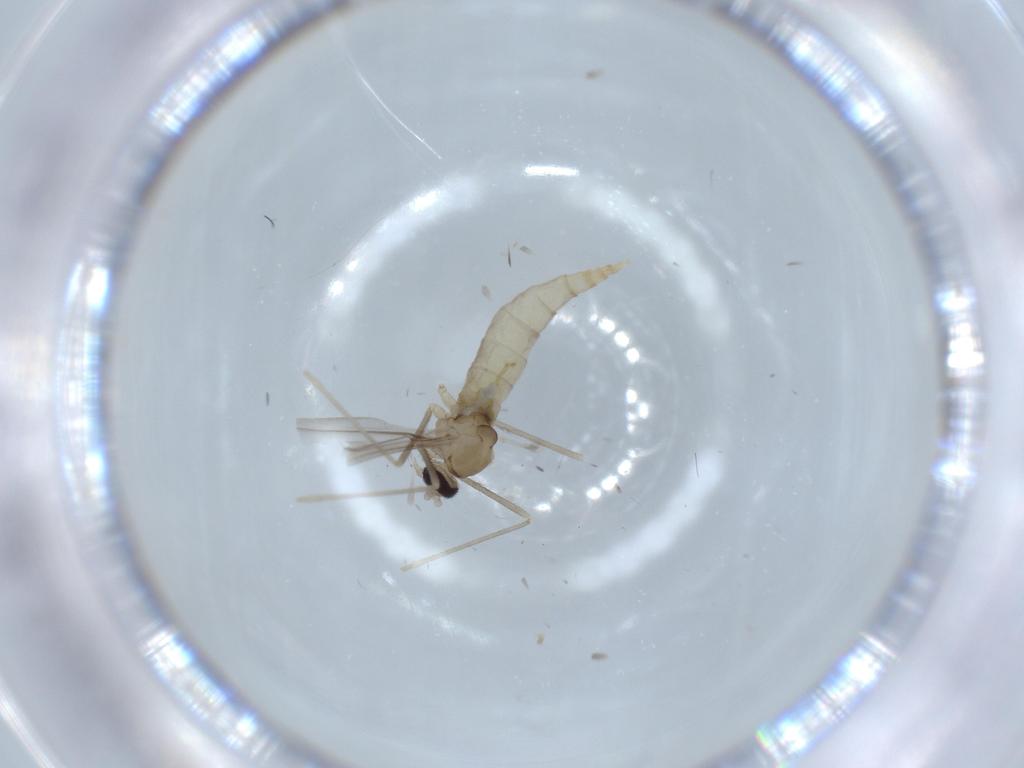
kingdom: Animalia
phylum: Arthropoda
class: Insecta
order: Diptera
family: Cecidomyiidae
